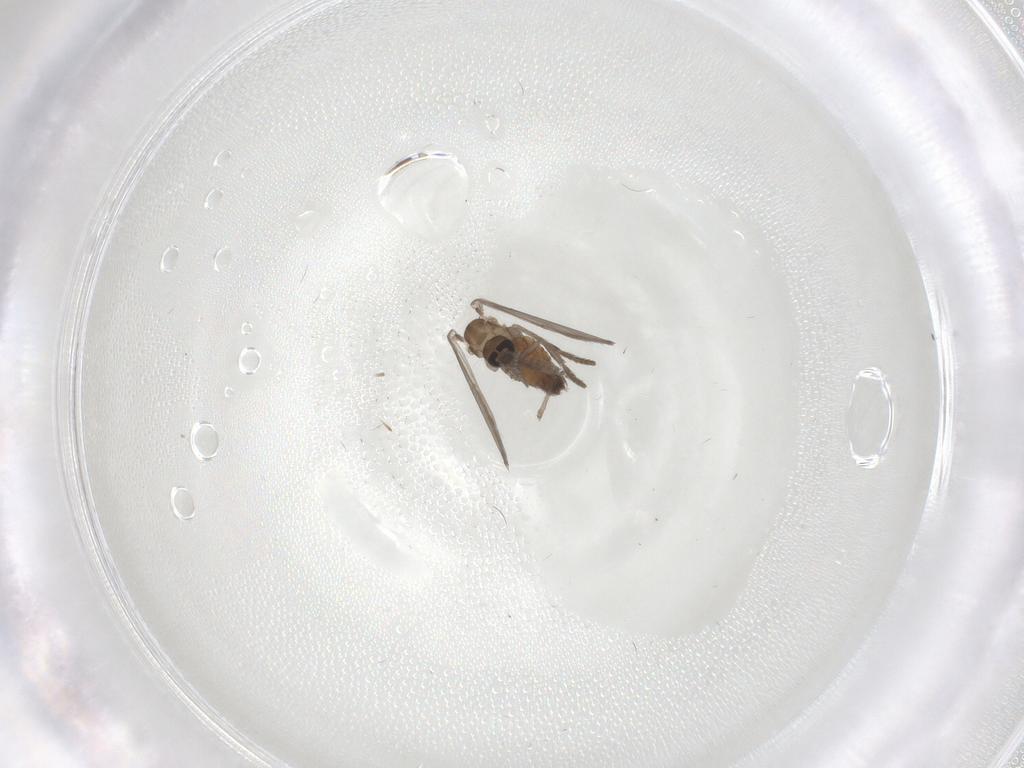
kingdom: Animalia
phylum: Arthropoda
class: Insecta
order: Diptera
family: Psychodidae
